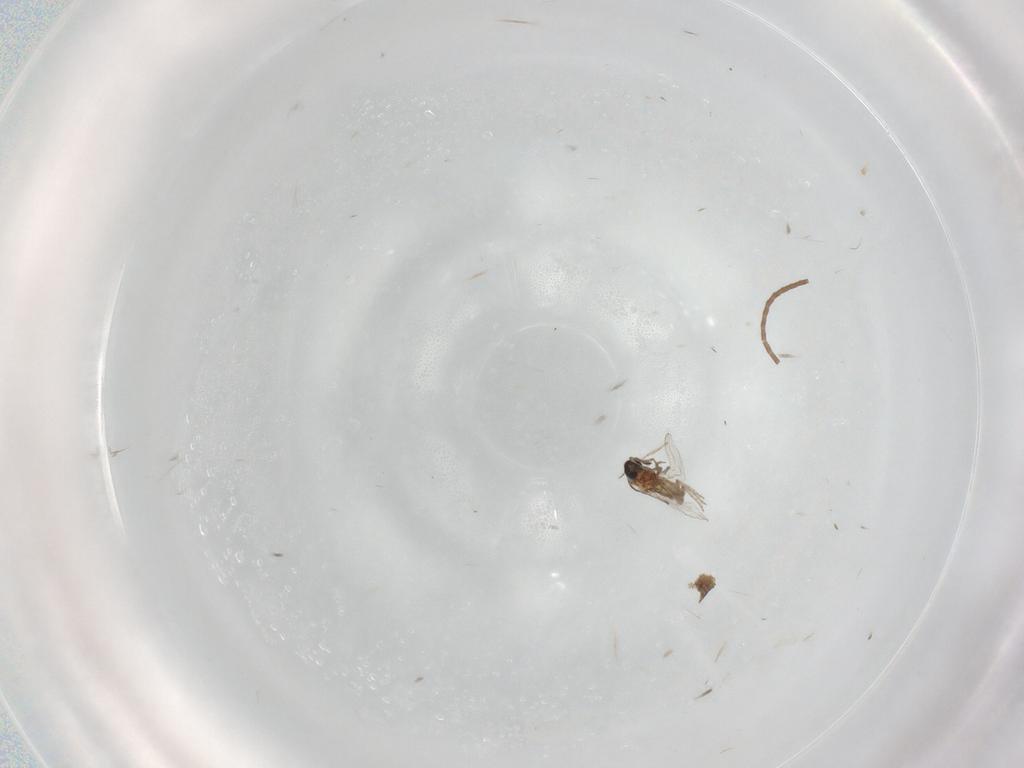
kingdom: Animalia
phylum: Arthropoda
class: Insecta
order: Diptera
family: Ceratopogonidae
